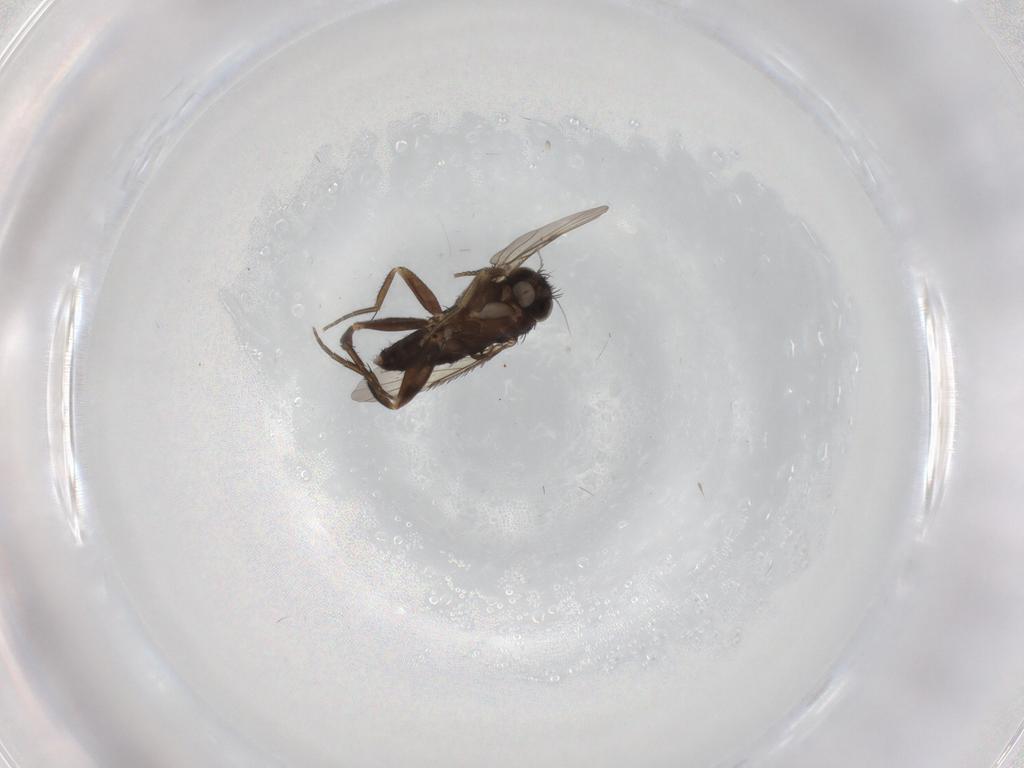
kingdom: Animalia
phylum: Arthropoda
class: Insecta
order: Diptera
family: Phoridae
